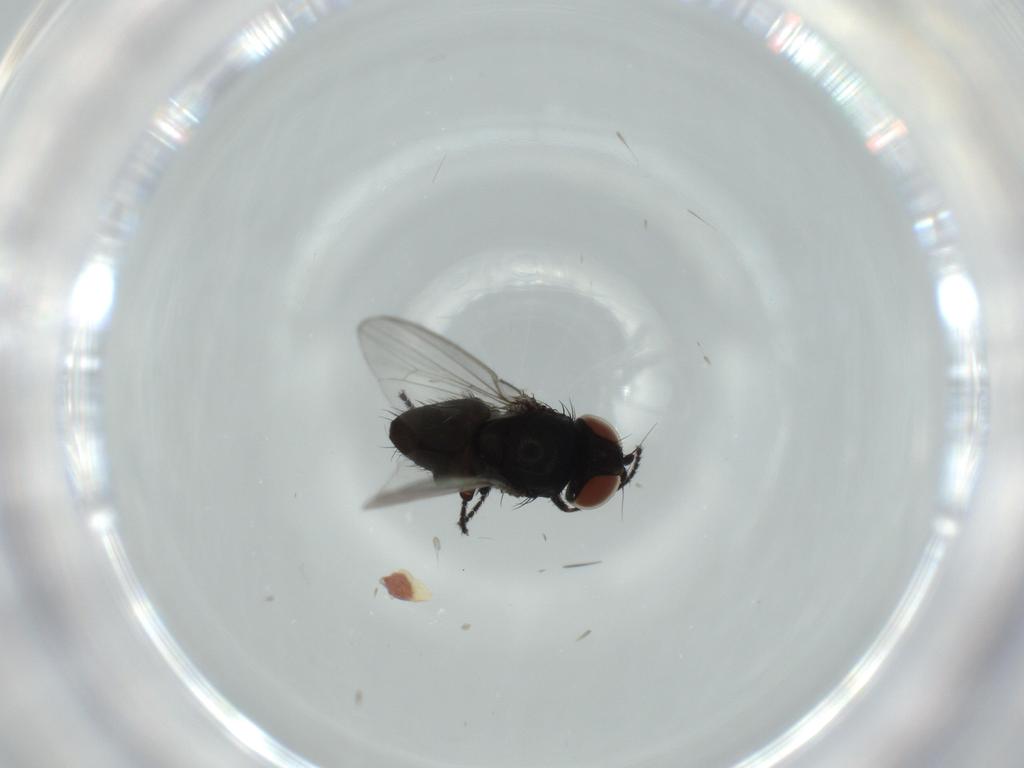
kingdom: Animalia
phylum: Arthropoda
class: Insecta
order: Diptera
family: Milichiidae
